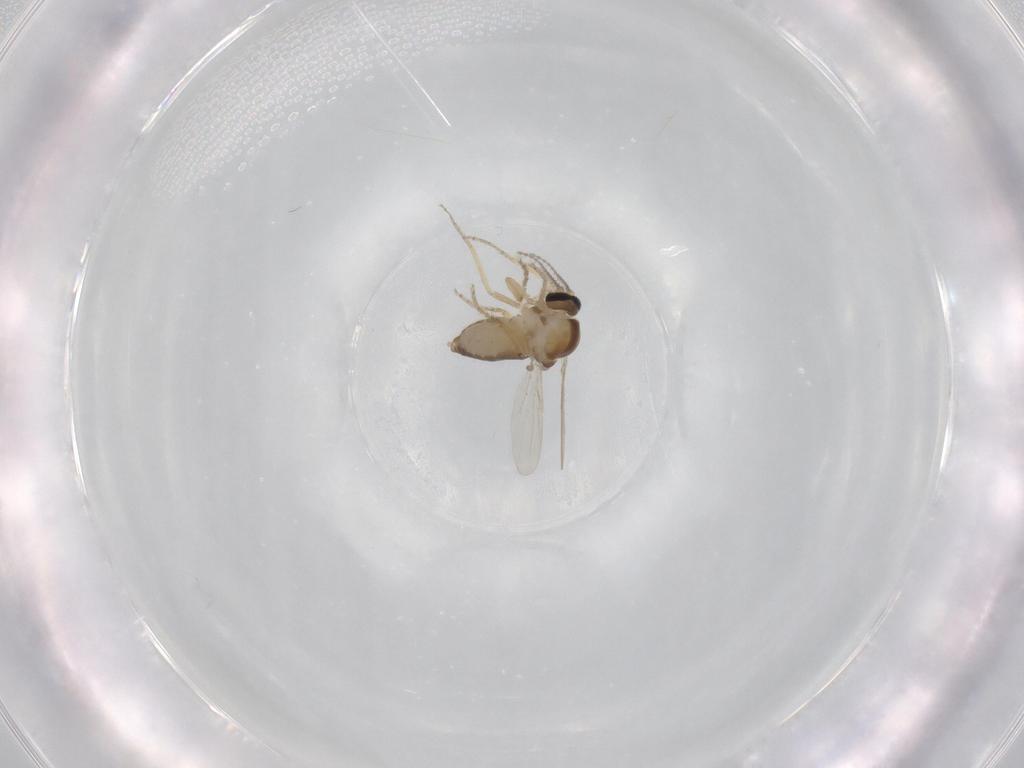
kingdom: Animalia
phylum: Arthropoda
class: Insecta
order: Diptera
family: Ceratopogonidae
